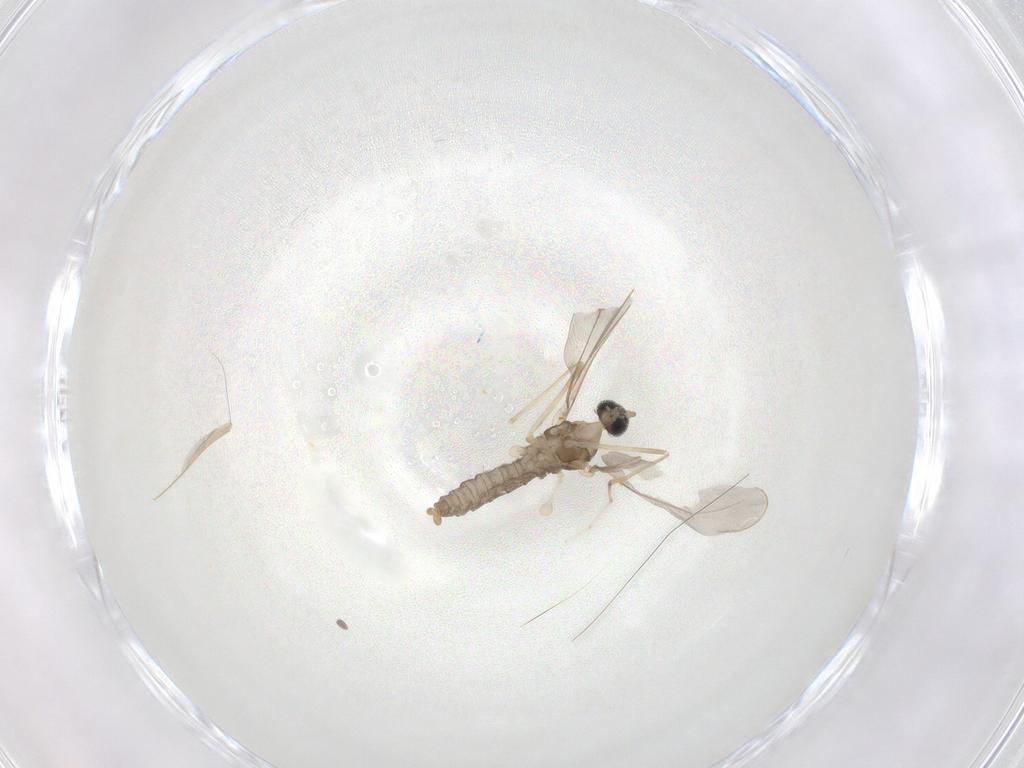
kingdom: Animalia
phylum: Arthropoda
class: Insecta
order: Diptera
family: Cecidomyiidae
